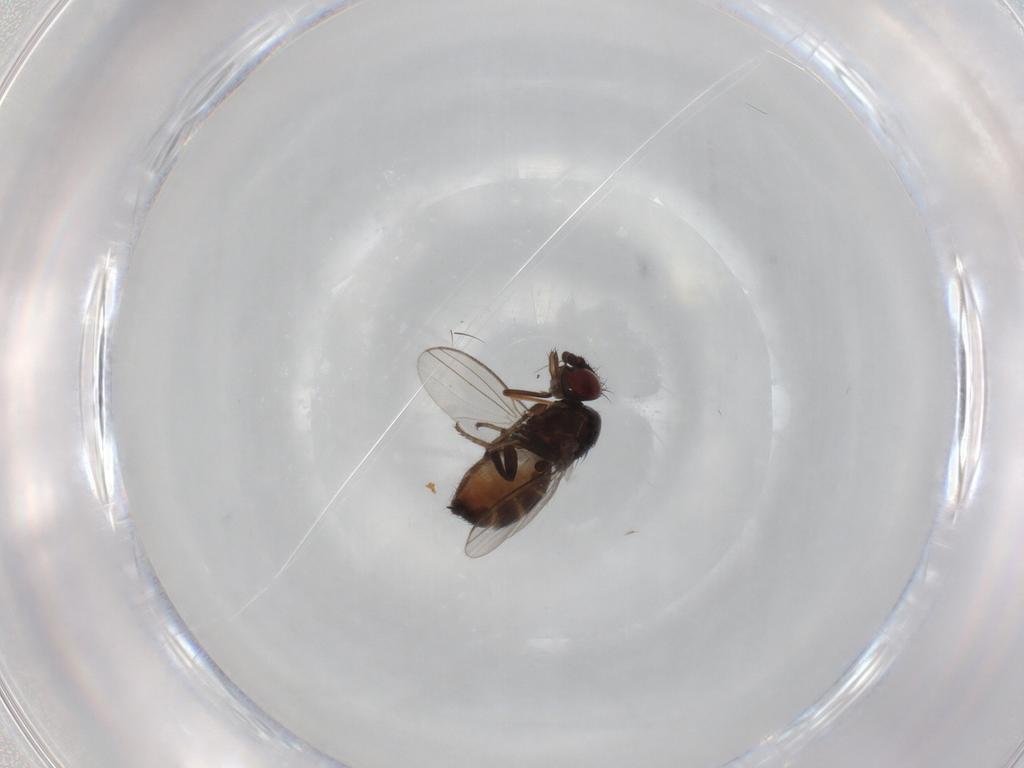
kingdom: Animalia
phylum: Arthropoda
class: Insecta
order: Diptera
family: Milichiidae
